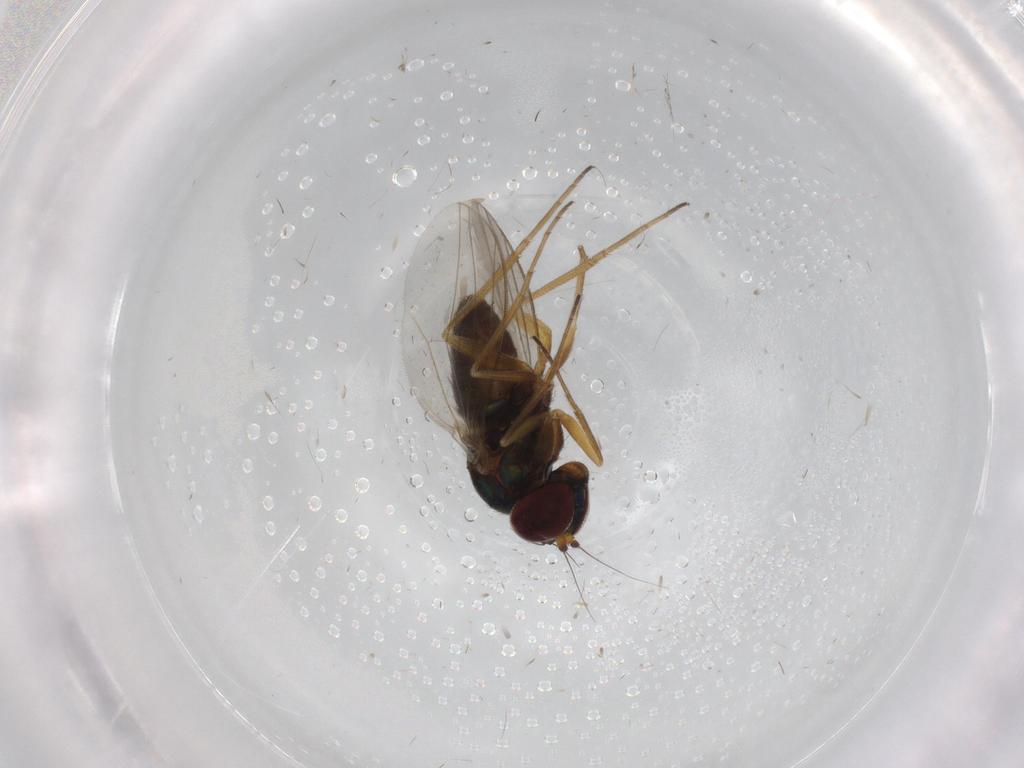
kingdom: Animalia
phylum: Arthropoda
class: Insecta
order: Diptera
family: Dolichopodidae
